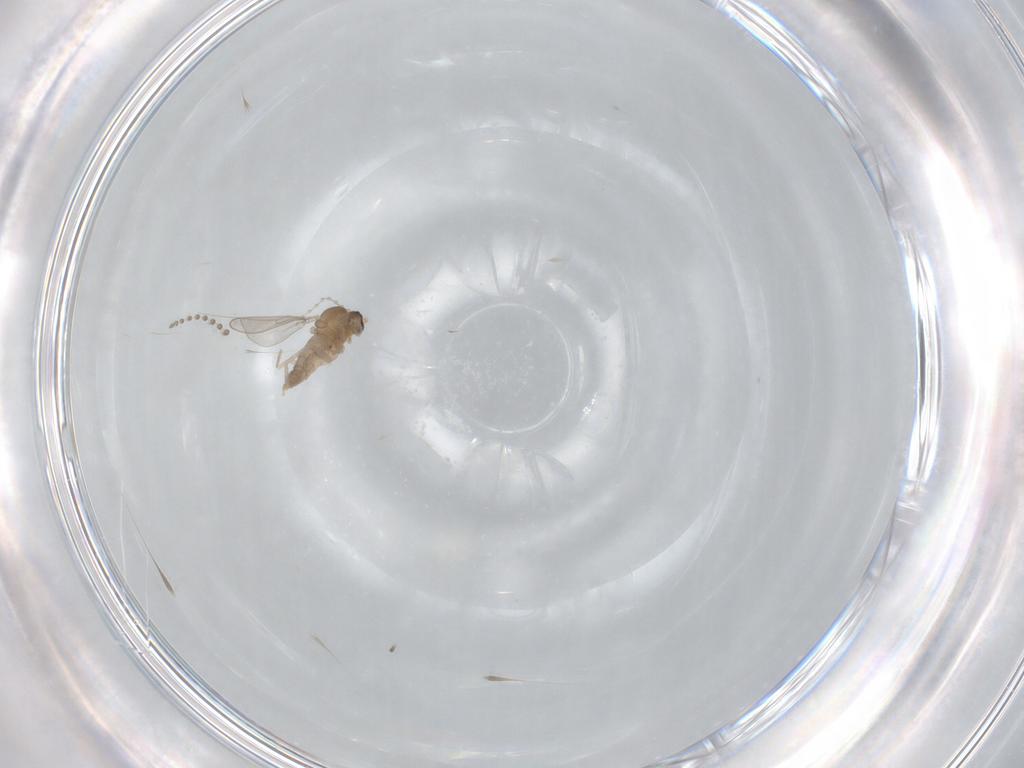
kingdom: Animalia
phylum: Arthropoda
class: Insecta
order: Diptera
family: Cecidomyiidae
